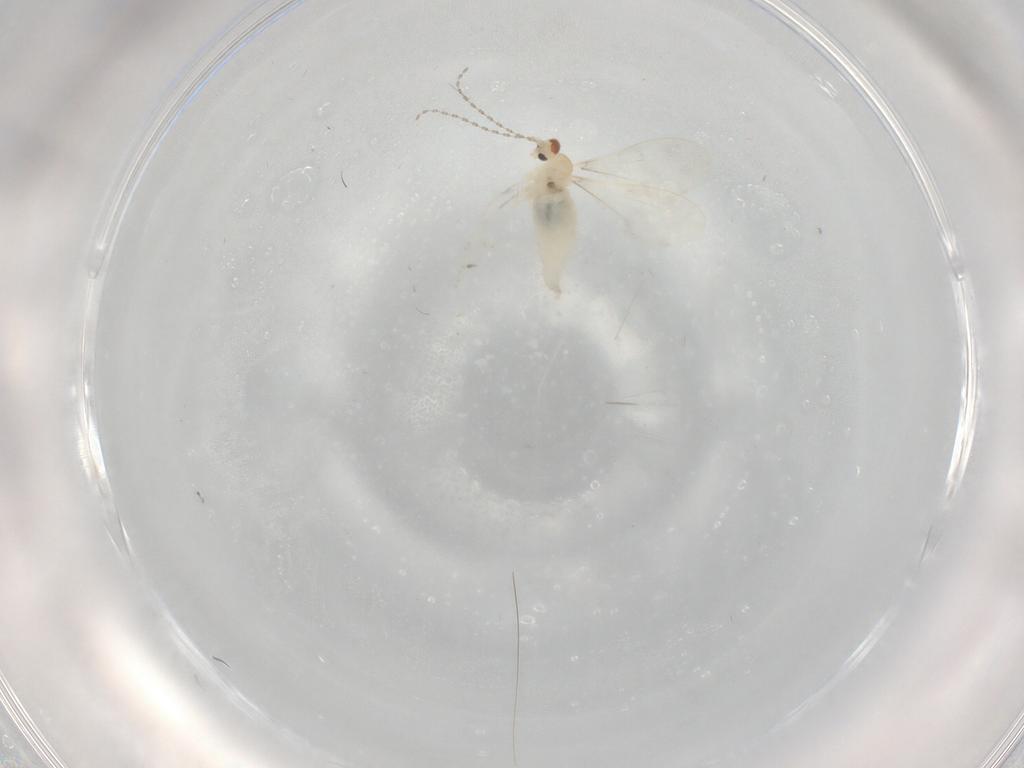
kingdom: Animalia
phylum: Arthropoda
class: Insecta
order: Diptera
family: Cecidomyiidae
